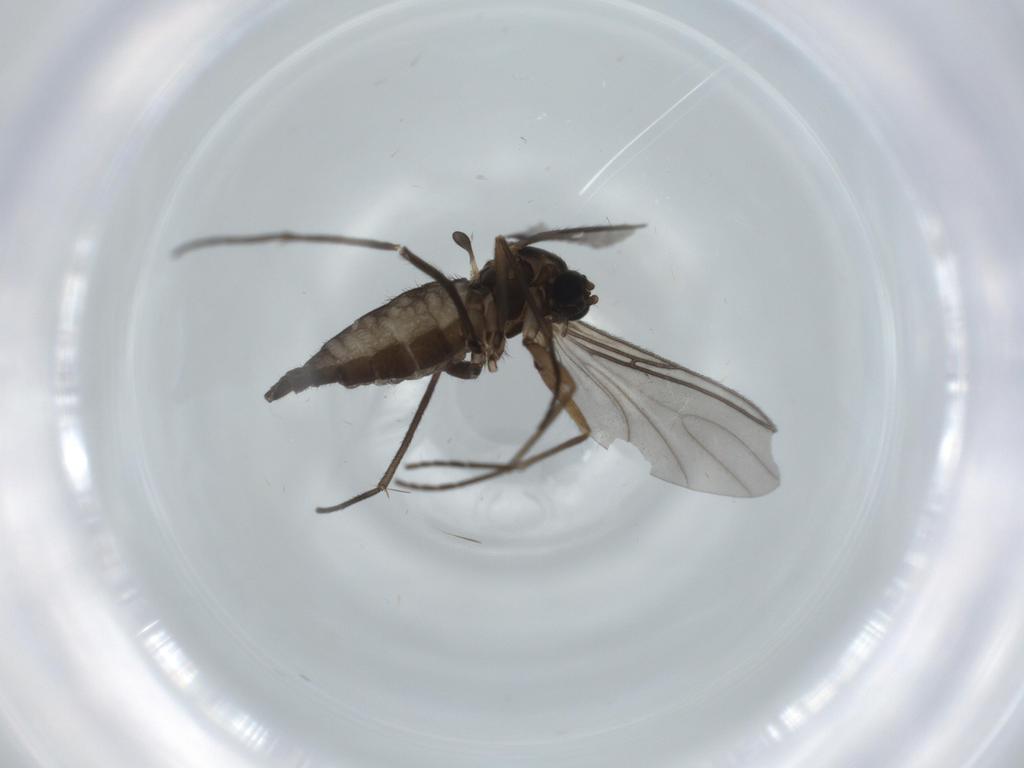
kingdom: Animalia
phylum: Arthropoda
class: Insecta
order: Diptera
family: Sciaridae
